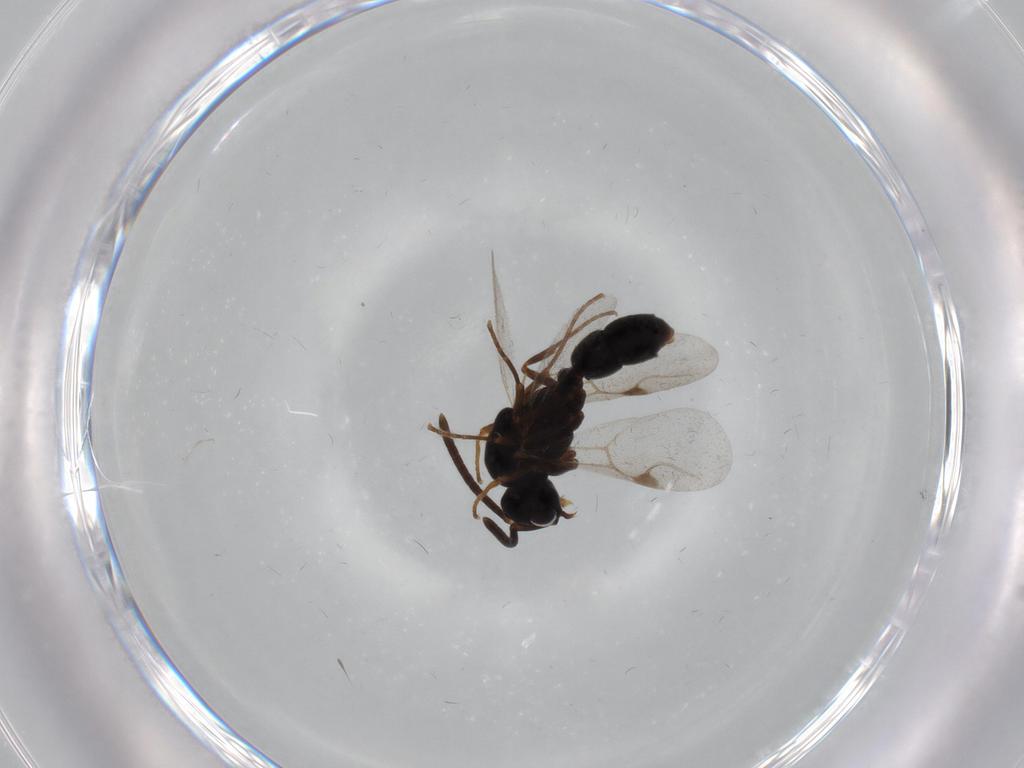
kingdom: Animalia
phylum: Arthropoda
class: Insecta
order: Hymenoptera
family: Formicidae
